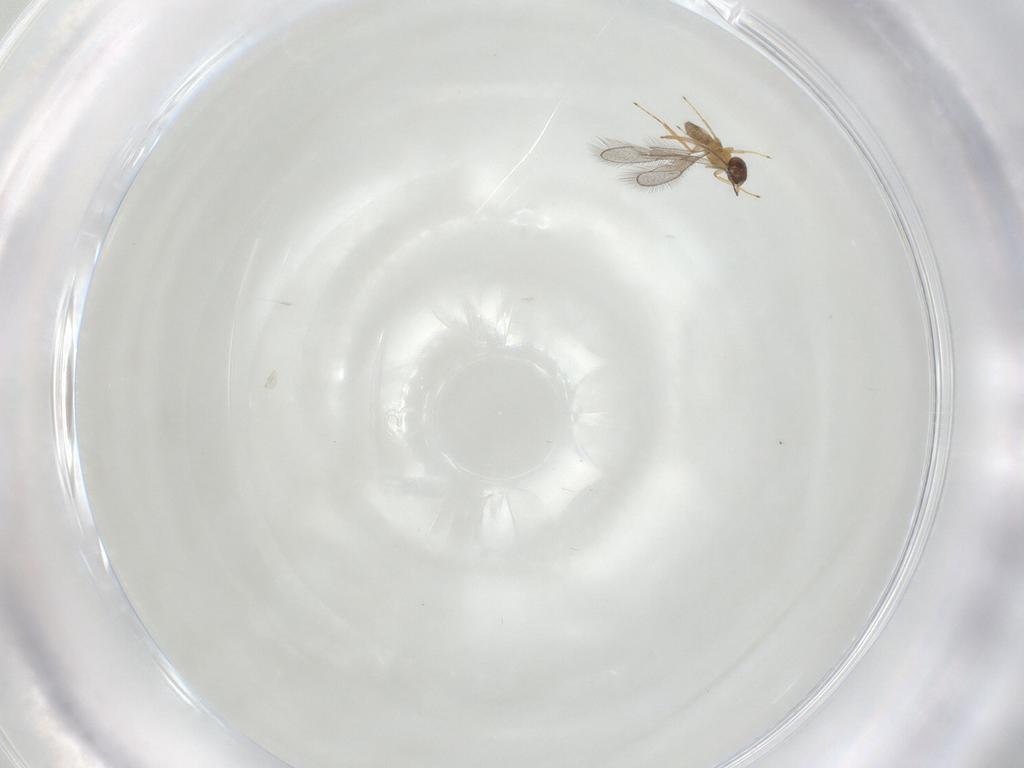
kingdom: Animalia
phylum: Arthropoda
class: Insecta
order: Hymenoptera
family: Mymaridae
